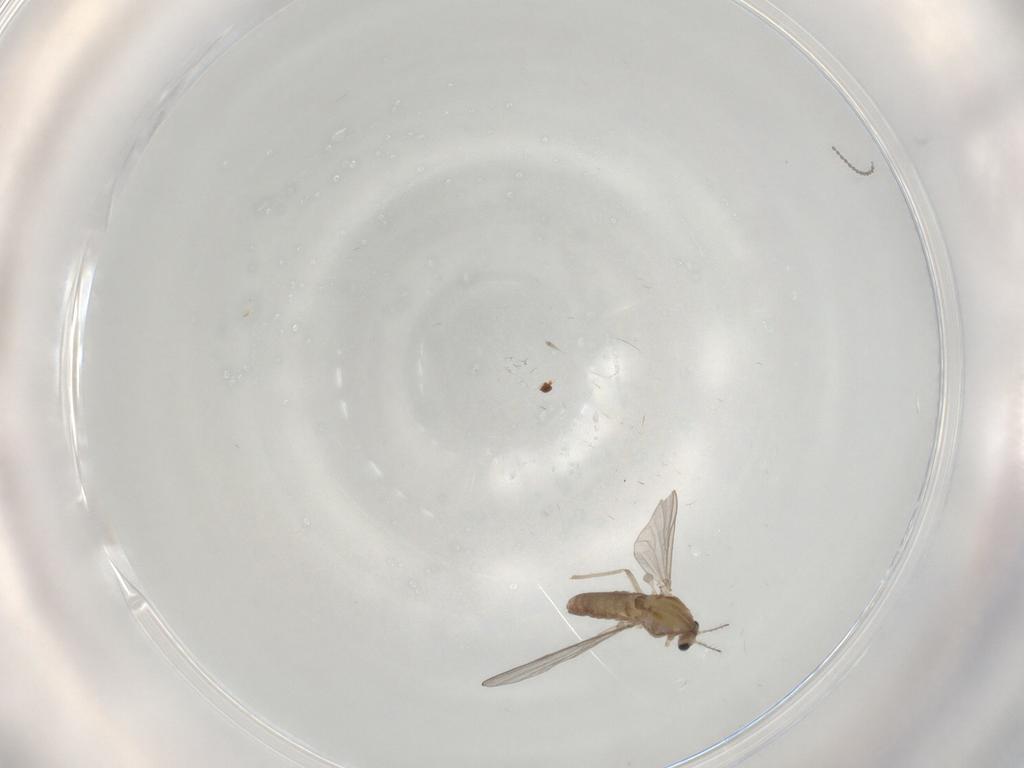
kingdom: Animalia
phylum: Arthropoda
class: Insecta
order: Diptera
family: Chironomidae
